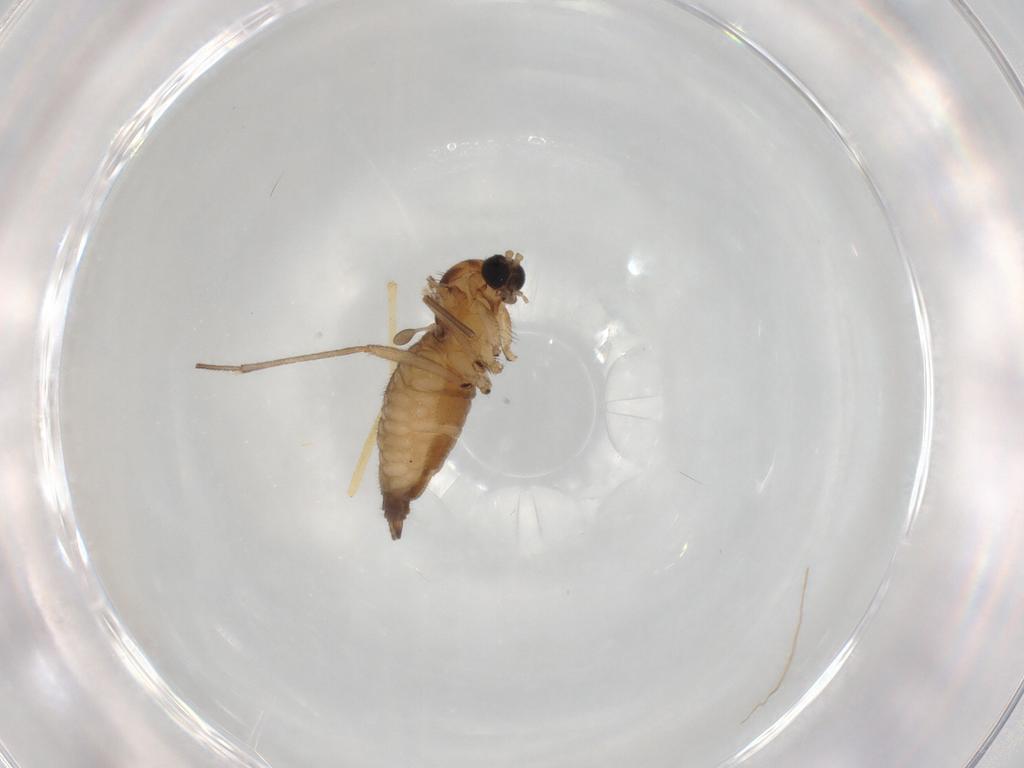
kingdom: Animalia
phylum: Arthropoda
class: Insecta
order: Diptera
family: Sciaridae
